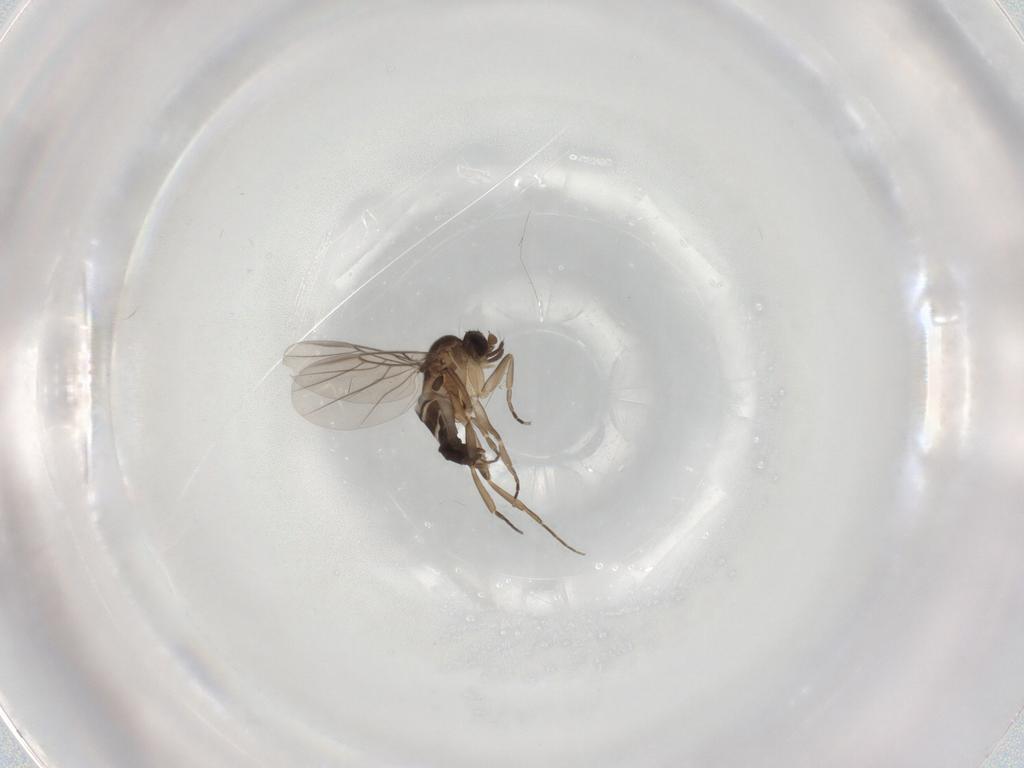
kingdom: Animalia
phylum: Arthropoda
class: Insecta
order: Diptera
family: Phoridae
